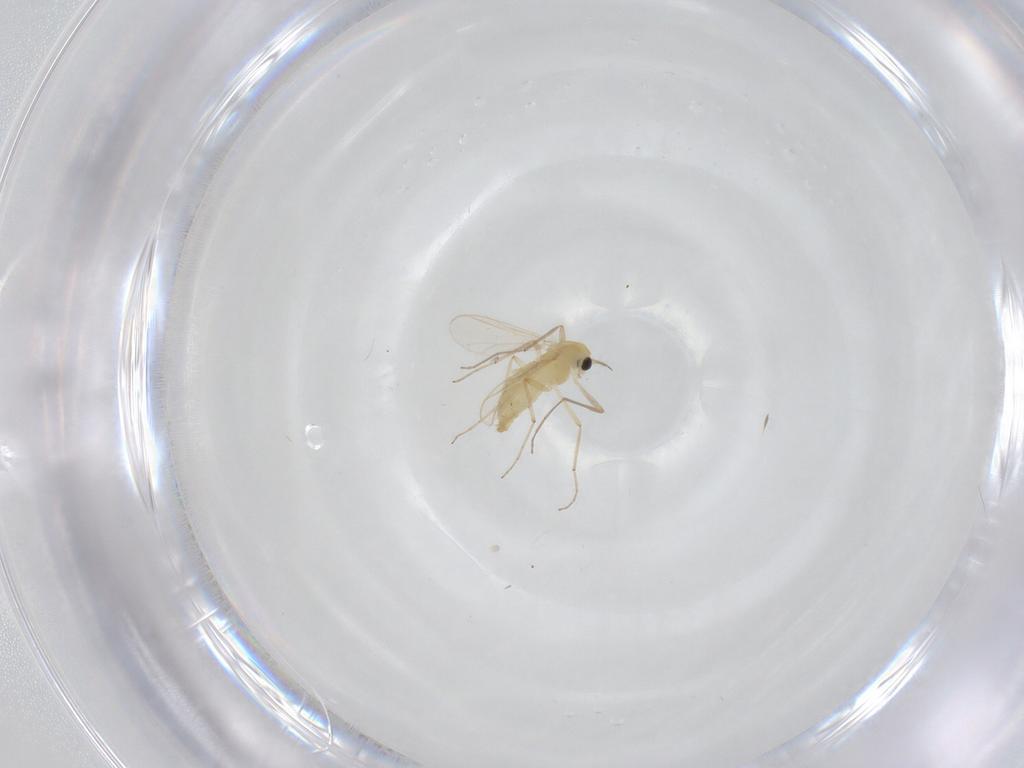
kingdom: Animalia
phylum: Arthropoda
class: Insecta
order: Diptera
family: Chironomidae
